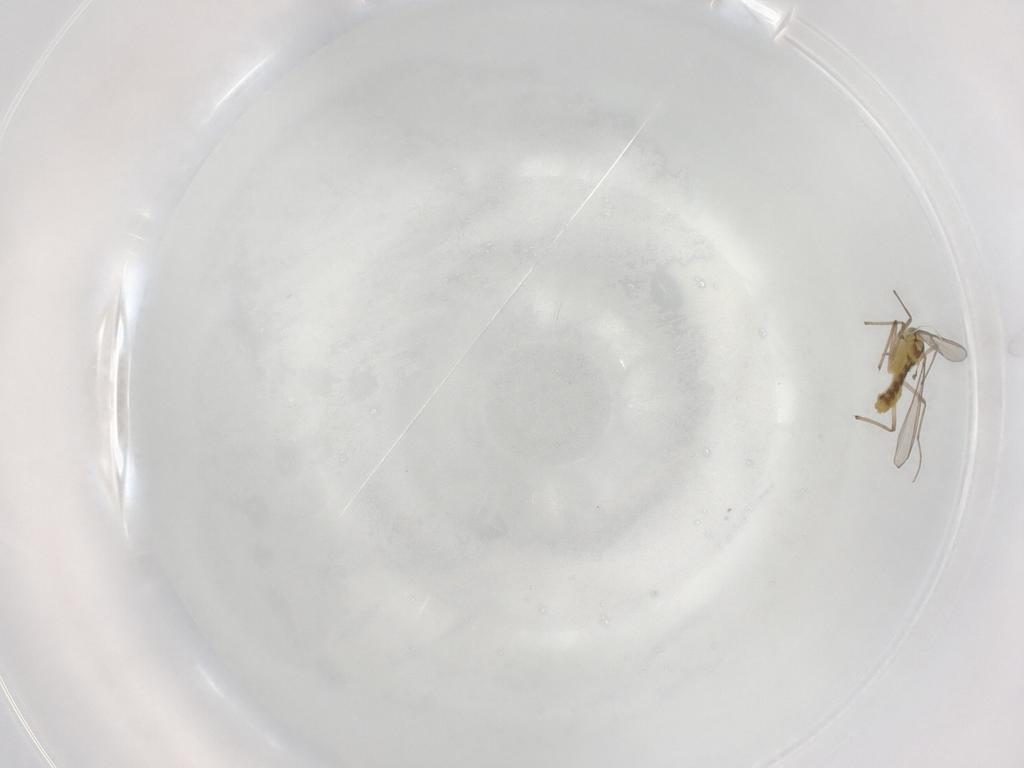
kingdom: Animalia
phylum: Arthropoda
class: Insecta
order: Diptera
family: Chironomidae
